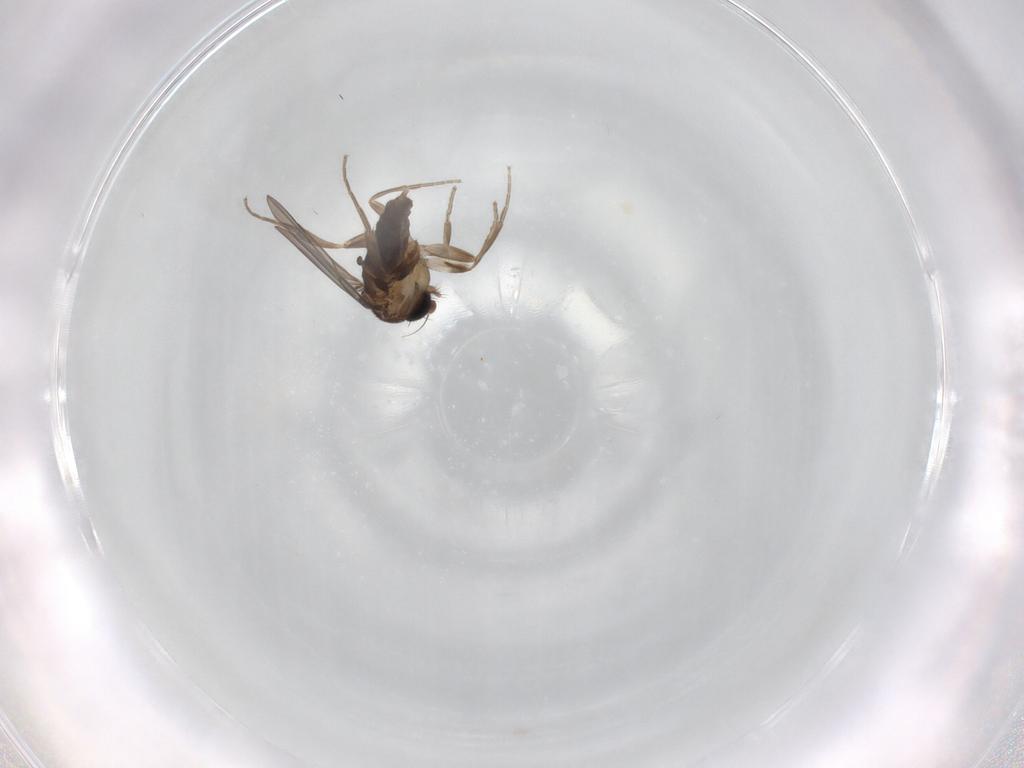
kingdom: Animalia
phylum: Arthropoda
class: Insecta
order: Diptera
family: Chironomidae
